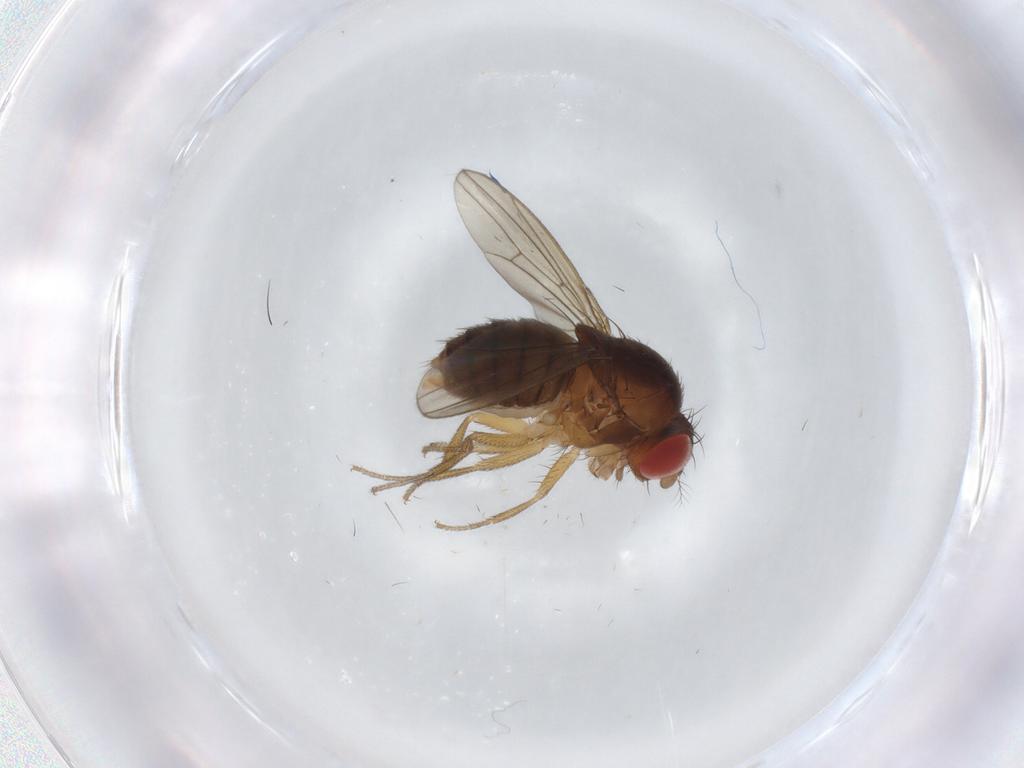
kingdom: Animalia
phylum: Arthropoda
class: Insecta
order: Diptera
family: Drosophilidae
